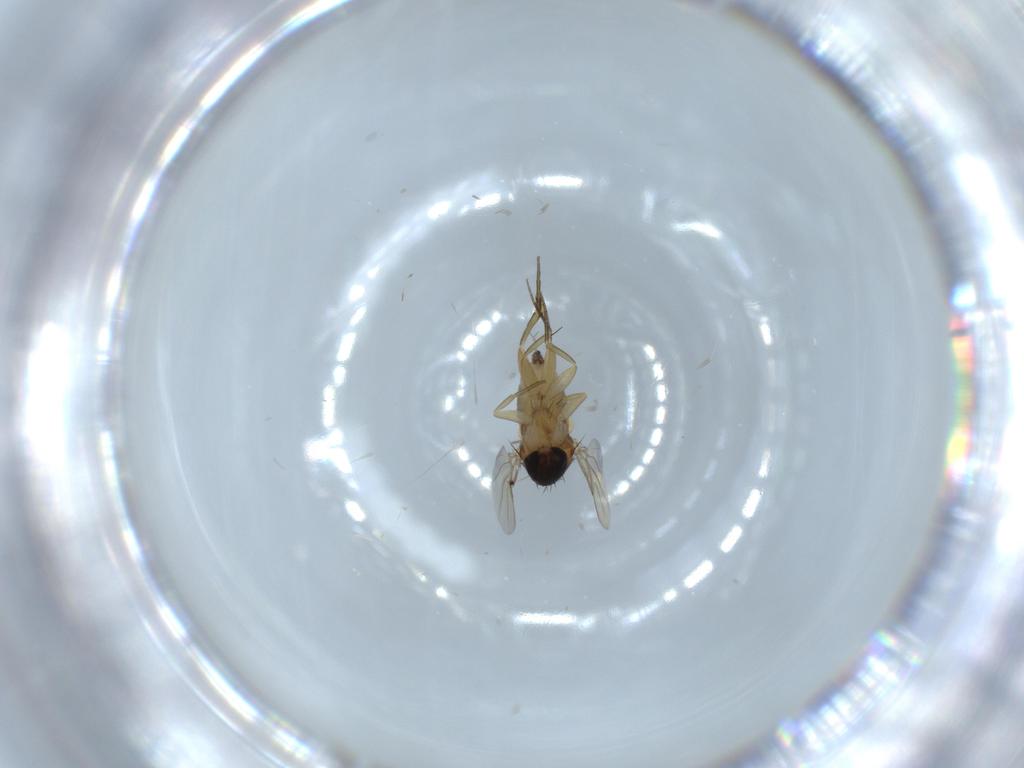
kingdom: Animalia
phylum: Arthropoda
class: Insecta
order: Diptera
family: Phoridae
